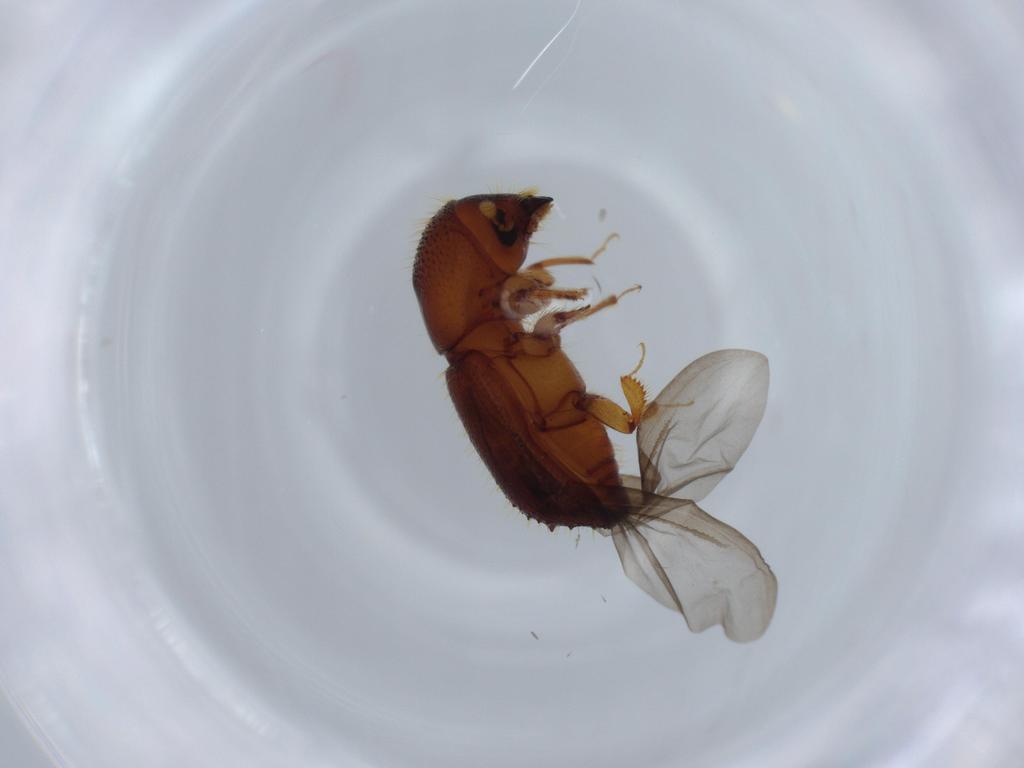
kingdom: Animalia
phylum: Arthropoda
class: Insecta
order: Coleoptera
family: Curculionidae
